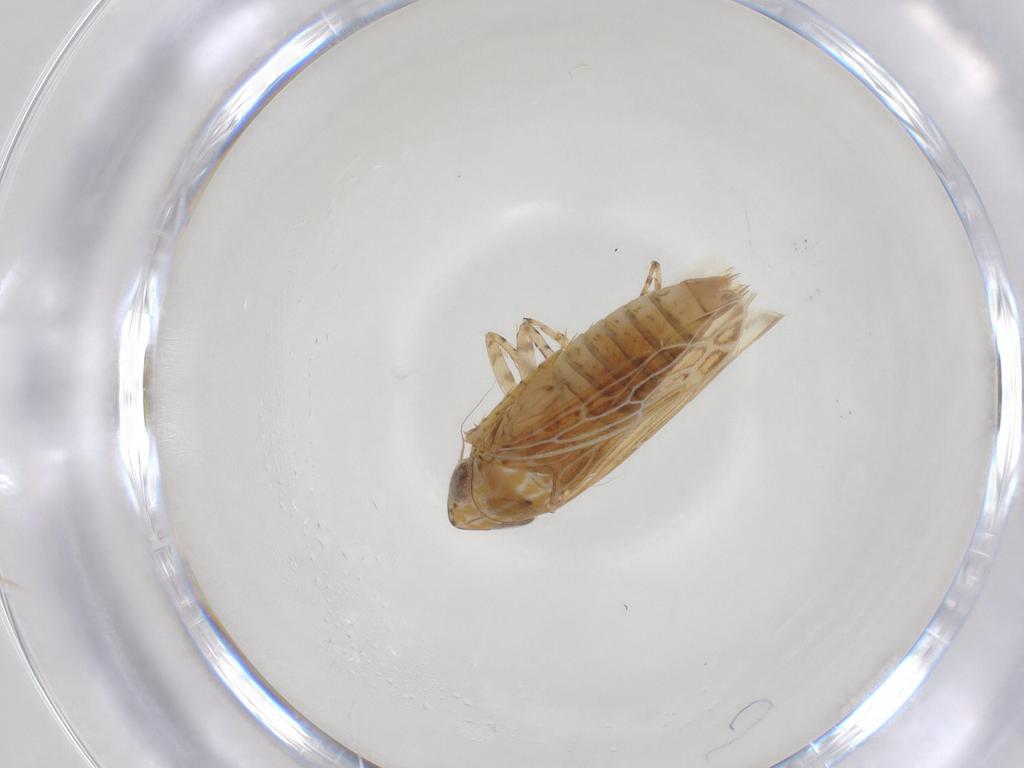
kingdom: Animalia
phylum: Arthropoda
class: Insecta
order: Hemiptera
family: Cicadellidae
